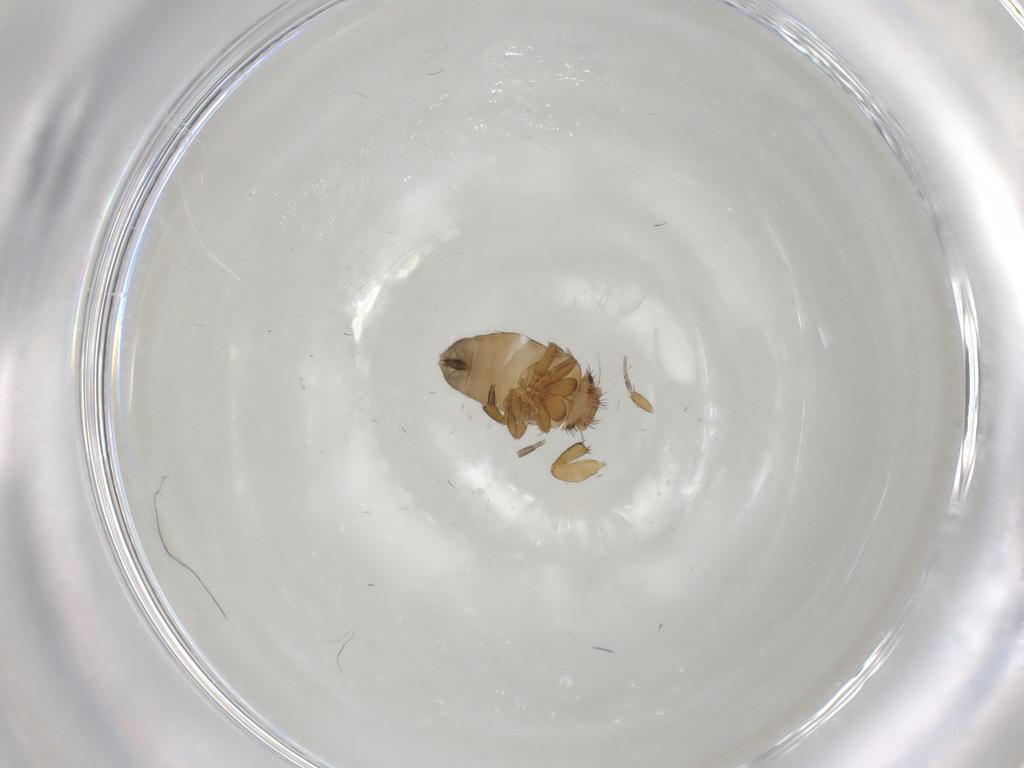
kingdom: Animalia
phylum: Arthropoda
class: Insecta
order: Diptera
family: Phoridae
